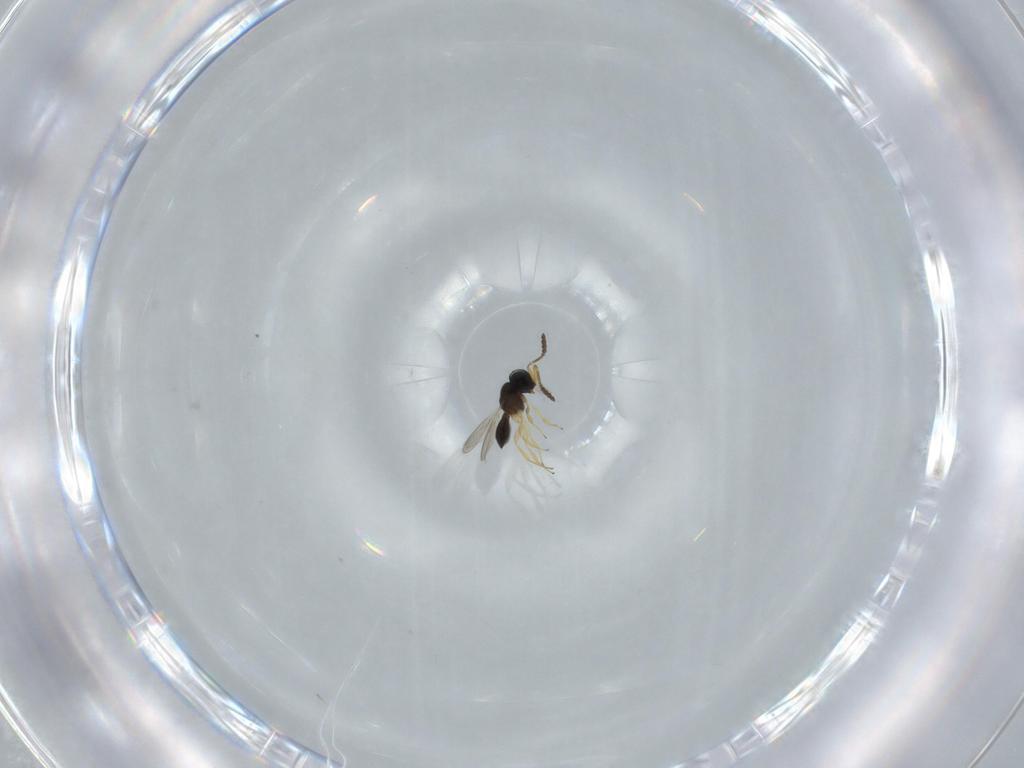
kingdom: Animalia
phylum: Arthropoda
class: Insecta
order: Hymenoptera
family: Scelionidae
